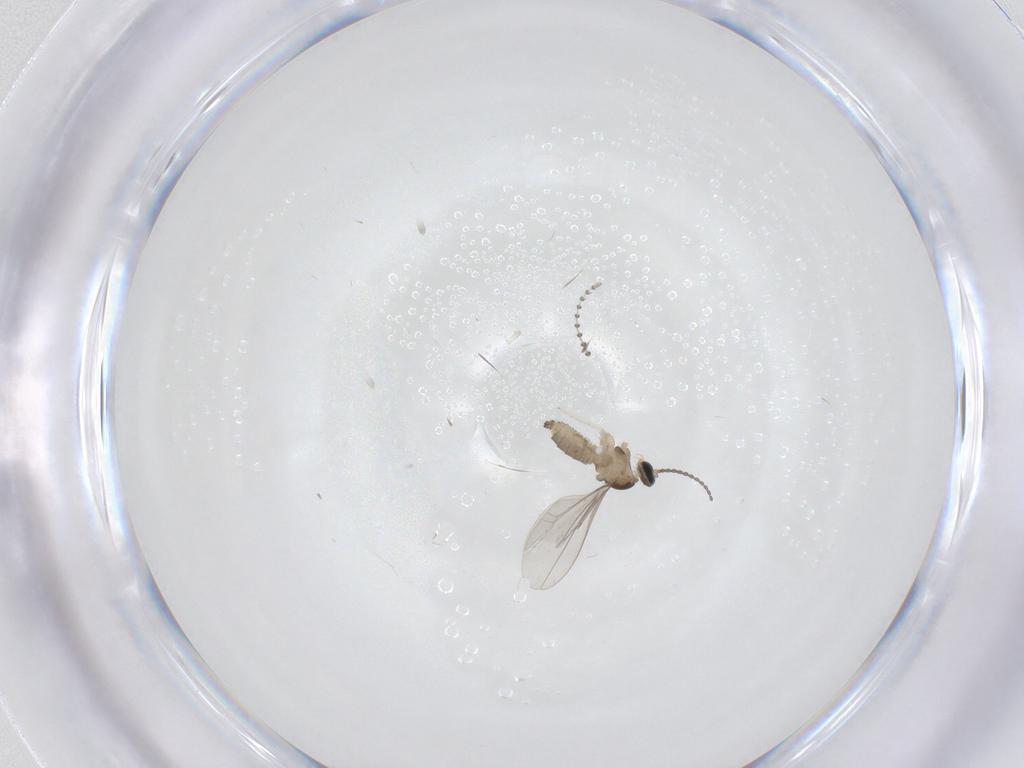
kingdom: Animalia
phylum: Arthropoda
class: Insecta
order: Diptera
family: Cecidomyiidae
